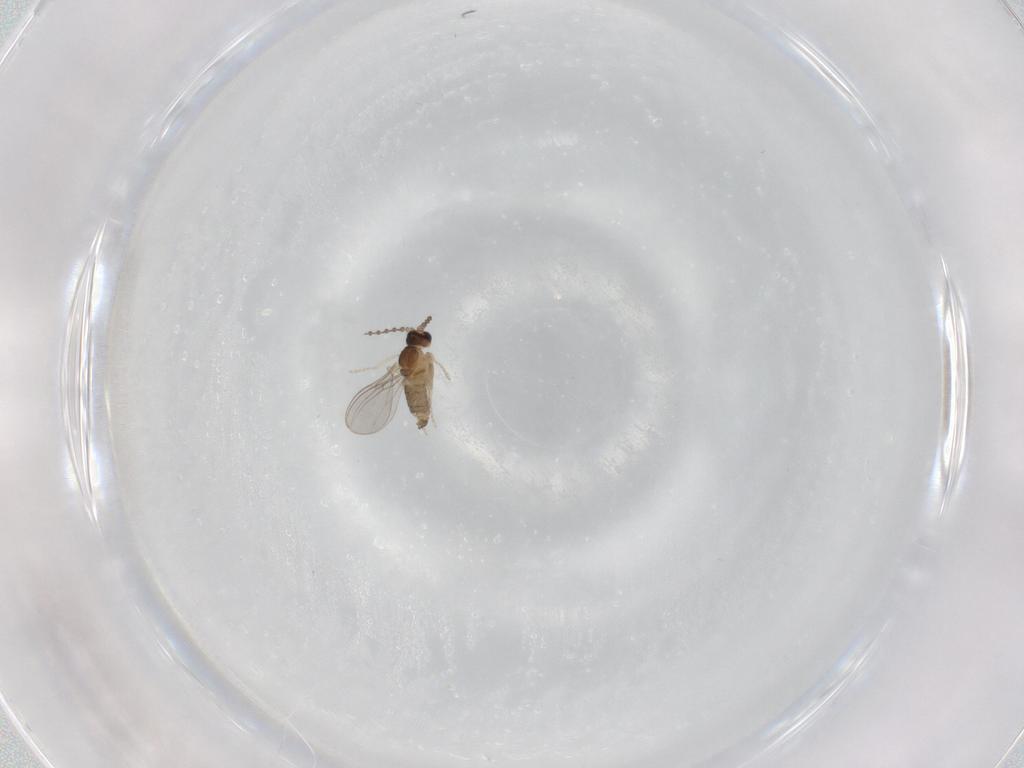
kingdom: Animalia
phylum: Arthropoda
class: Insecta
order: Diptera
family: Cecidomyiidae
